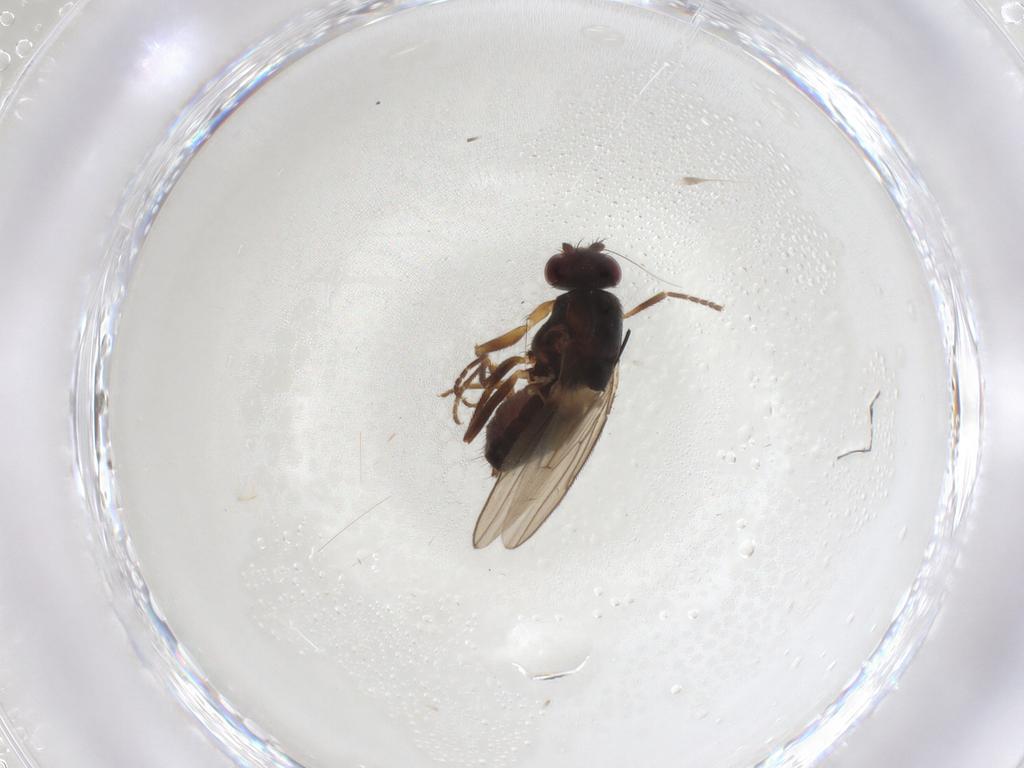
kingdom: Animalia
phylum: Arthropoda
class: Insecta
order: Diptera
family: Sphaeroceridae
